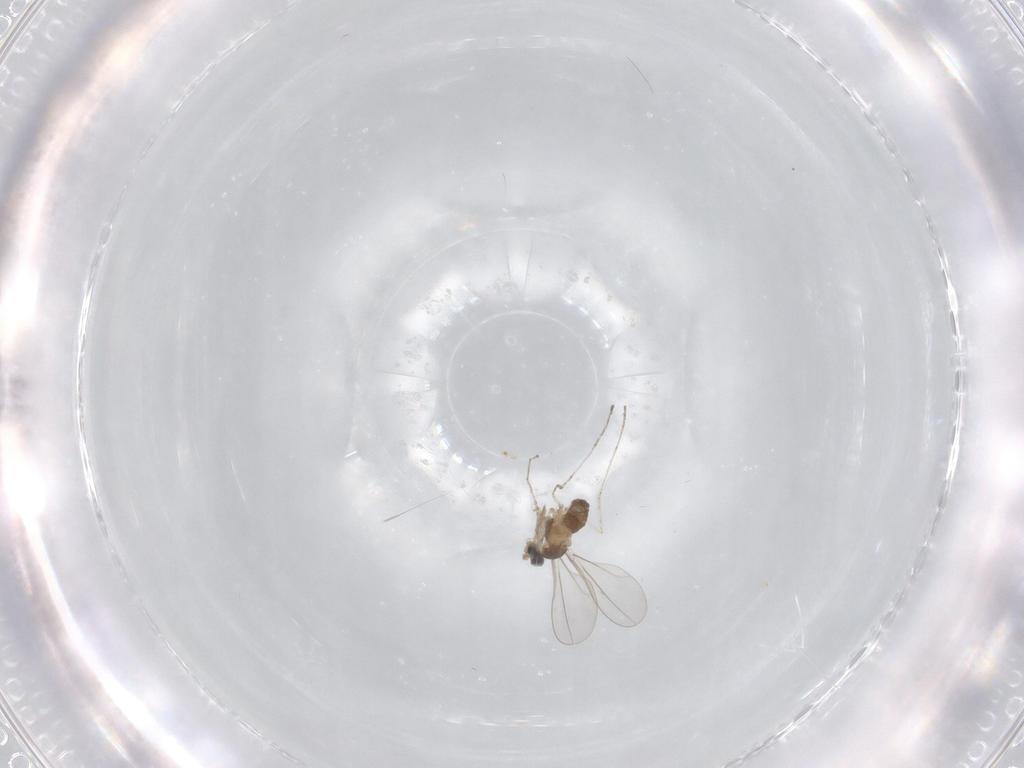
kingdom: Animalia
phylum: Arthropoda
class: Insecta
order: Diptera
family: Cecidomyiidae
